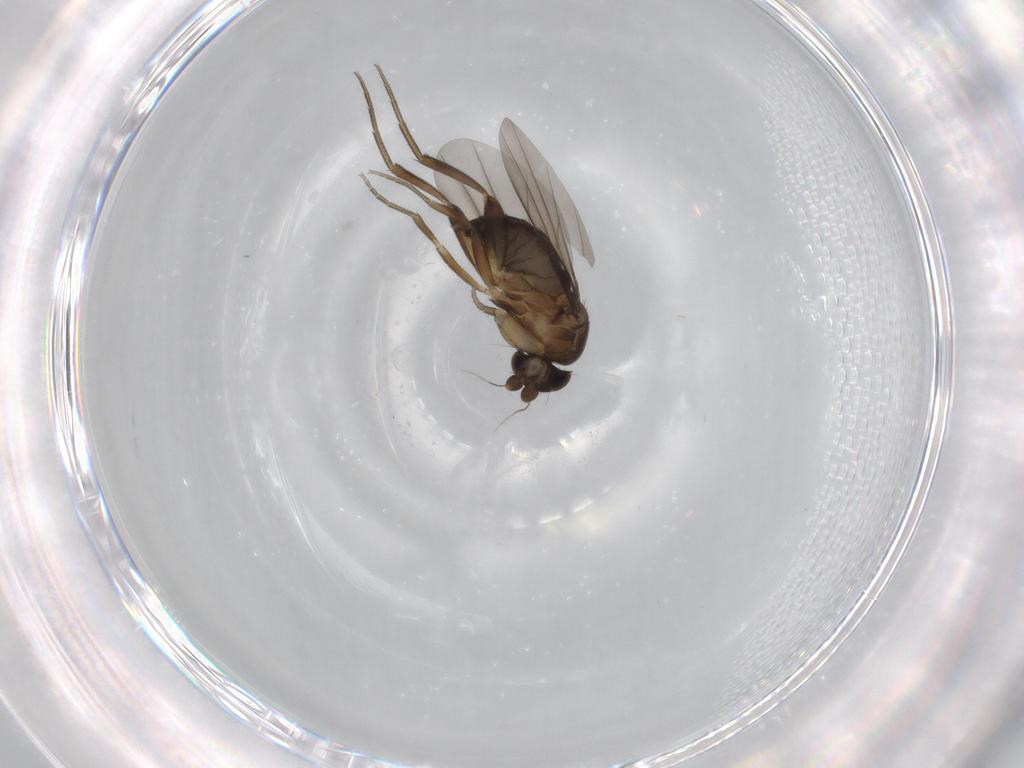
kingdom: Animalia
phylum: Arthropoda
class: Insecta
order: Diptera
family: Phoridae
